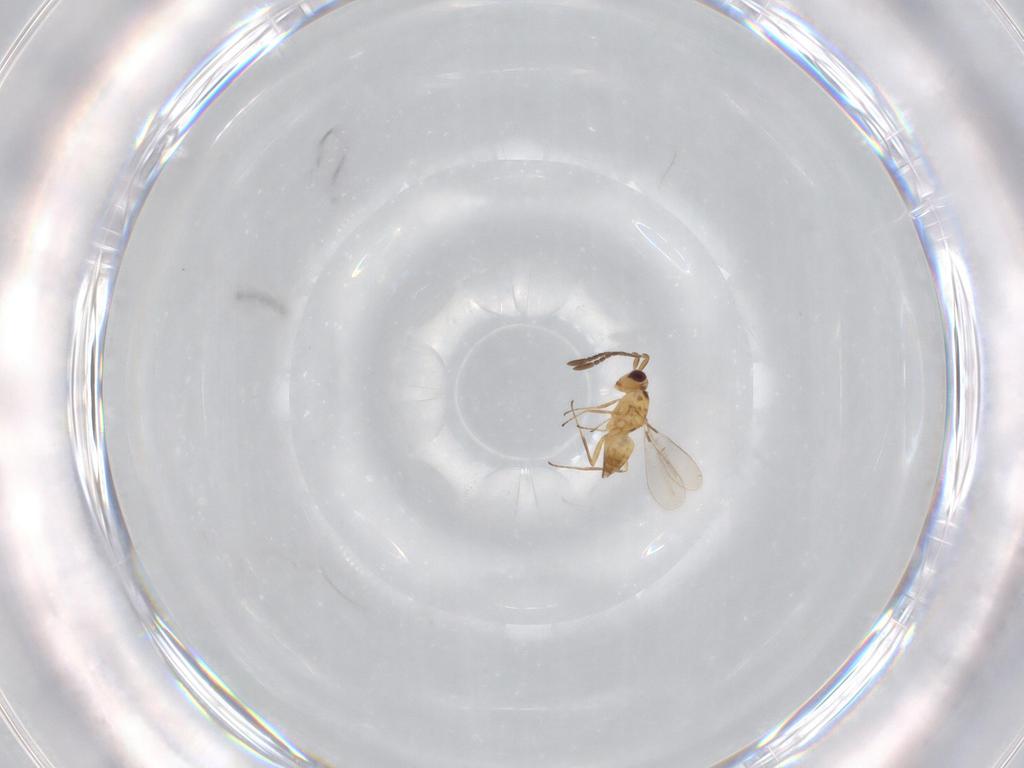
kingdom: Animalia
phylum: Arthropoda
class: Insecta
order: Hymenoptera
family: Mymaridae
